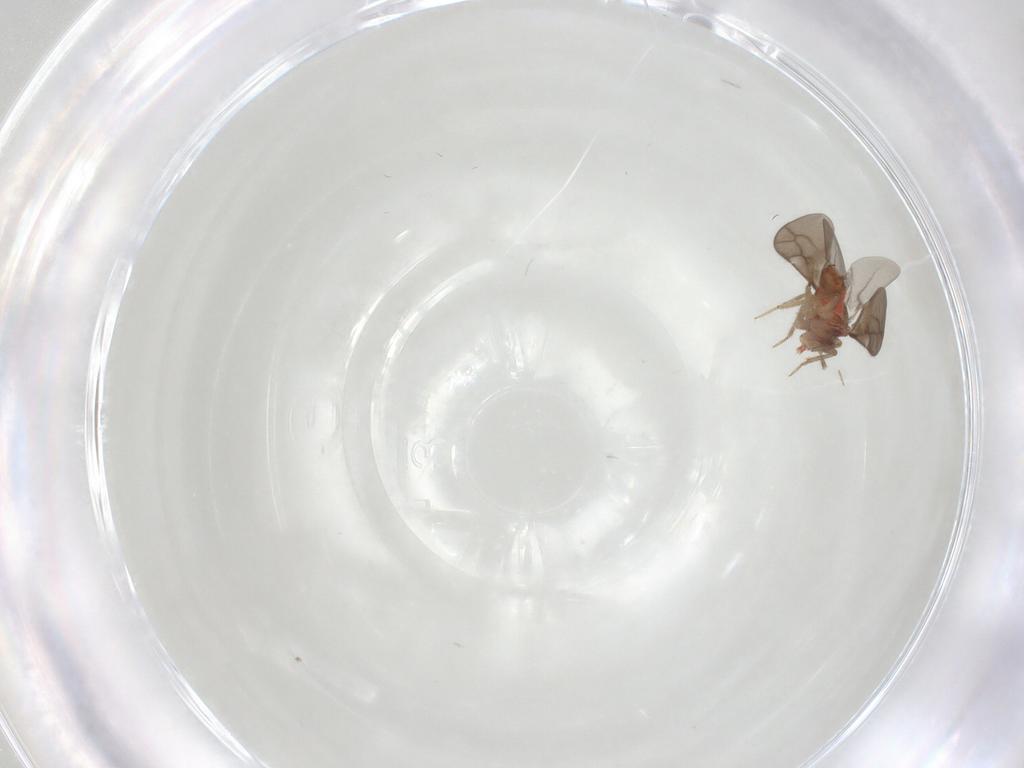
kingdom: Animalia
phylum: Arthropoda
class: Insecta
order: Hemiptera
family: Ceratocombidae
